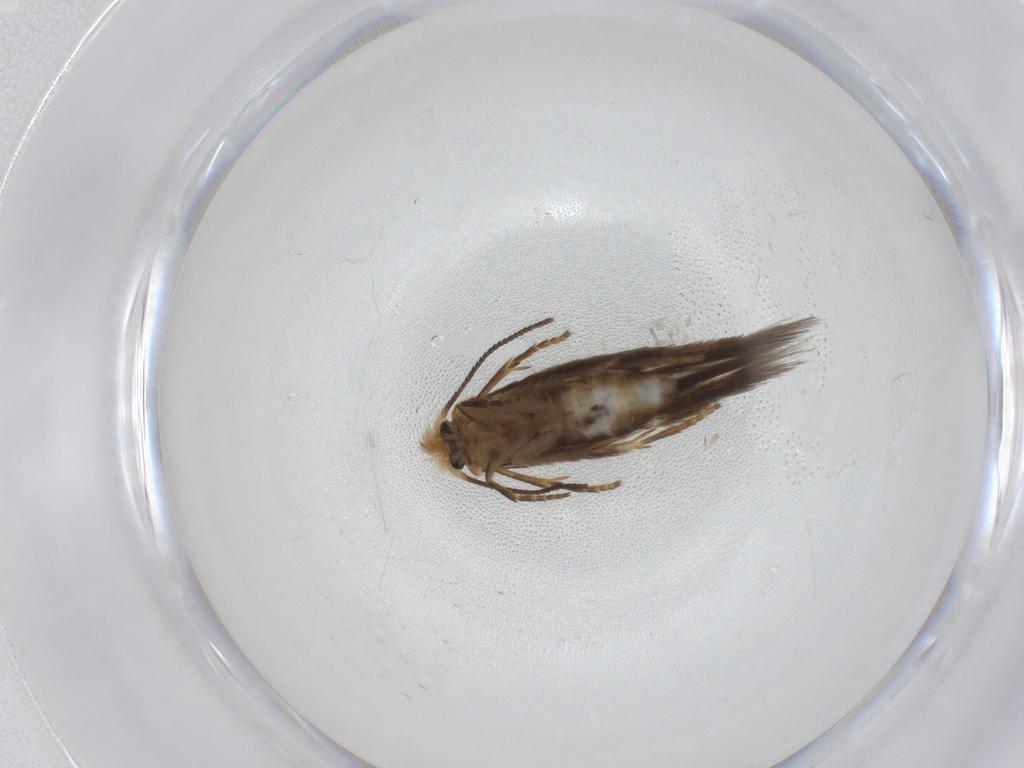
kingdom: Animalia
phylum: Arthropoda
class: Insecta
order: Lepidoptera
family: Nepticulidae
